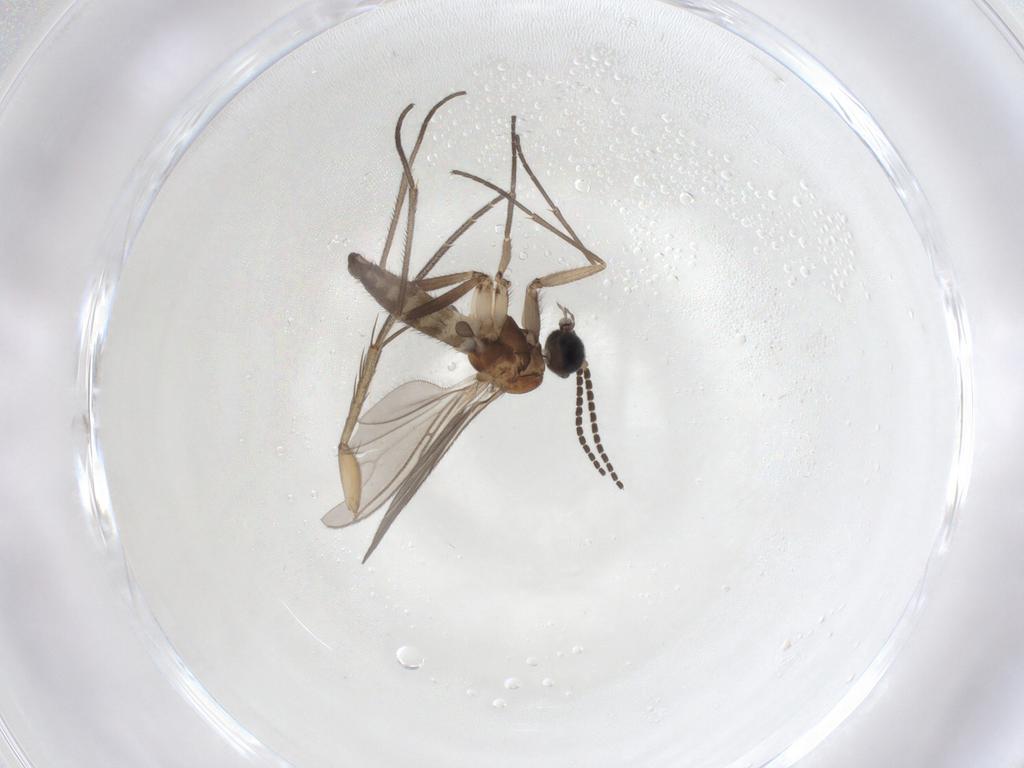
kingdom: Animalia
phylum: Arthropoda
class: Insecta
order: Diptera
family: Sciaridae
